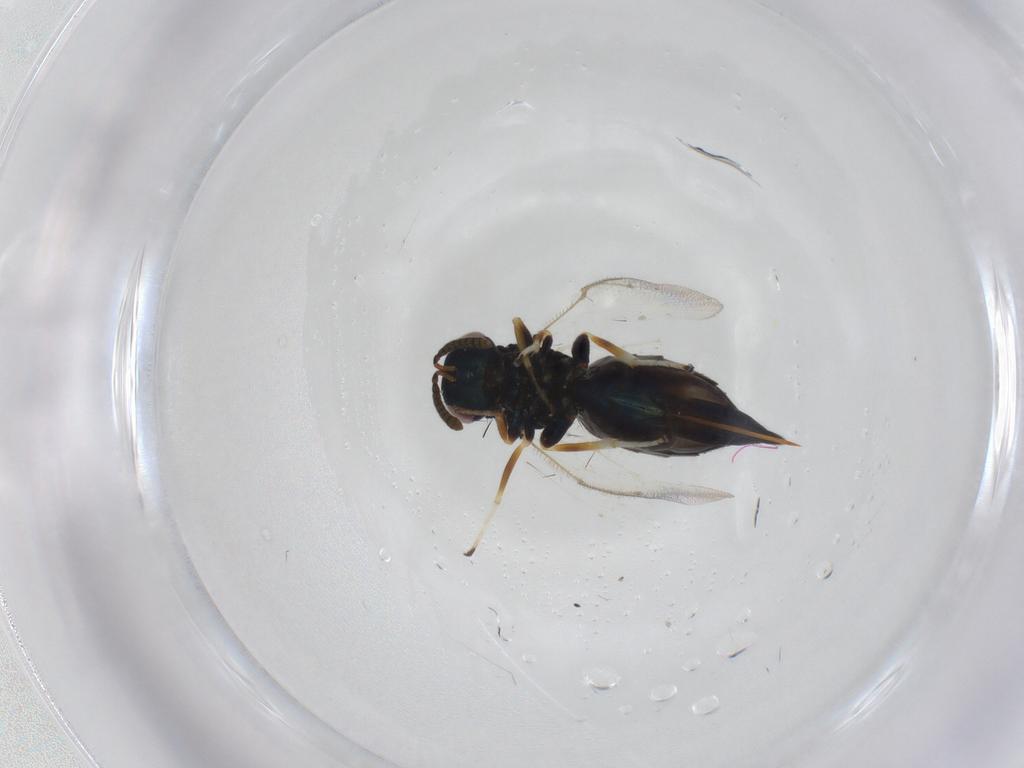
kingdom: Animalia
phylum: Arthropoda
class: Insecta
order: Hymenoptera
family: Pteromalidae
